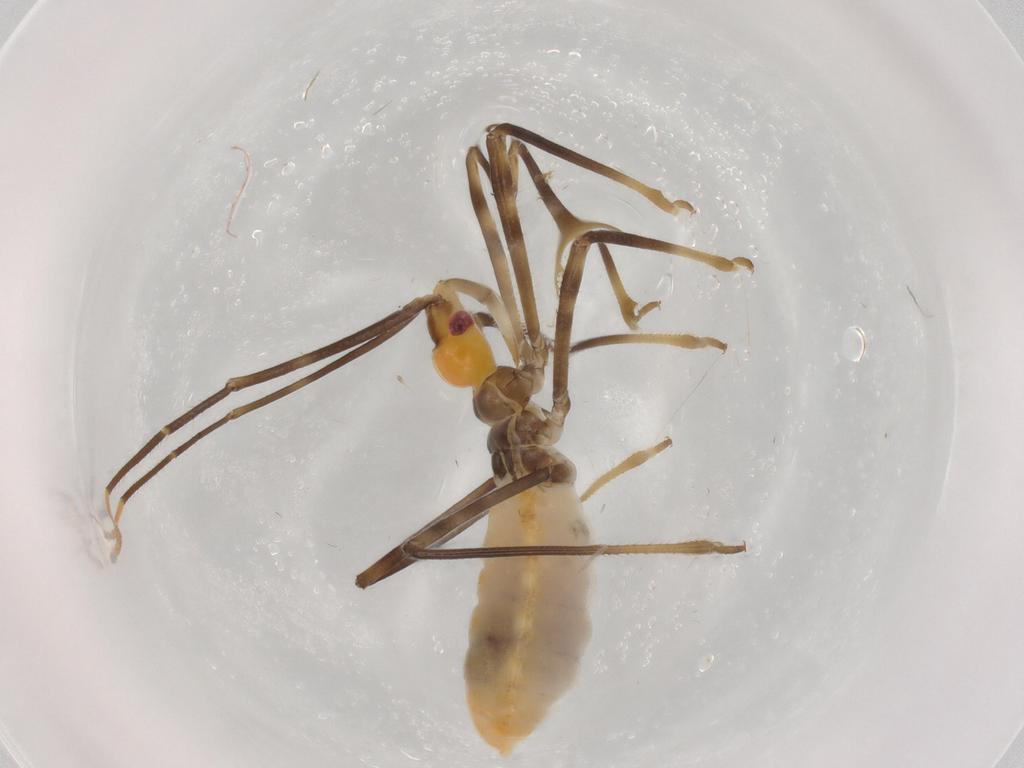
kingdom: Animalia
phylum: Arthropoda
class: Insecta
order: Hemiptera
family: Reduviidae
